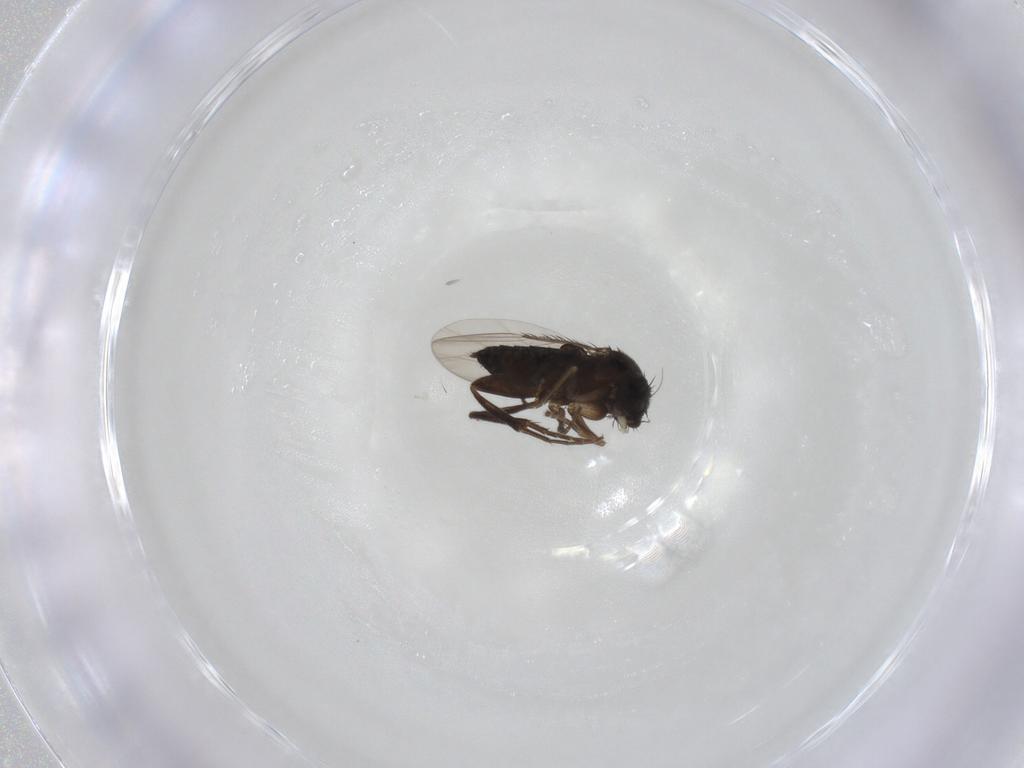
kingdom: Animalia
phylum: Arthropoda
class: Insecta
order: Diptera
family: Phoridae
